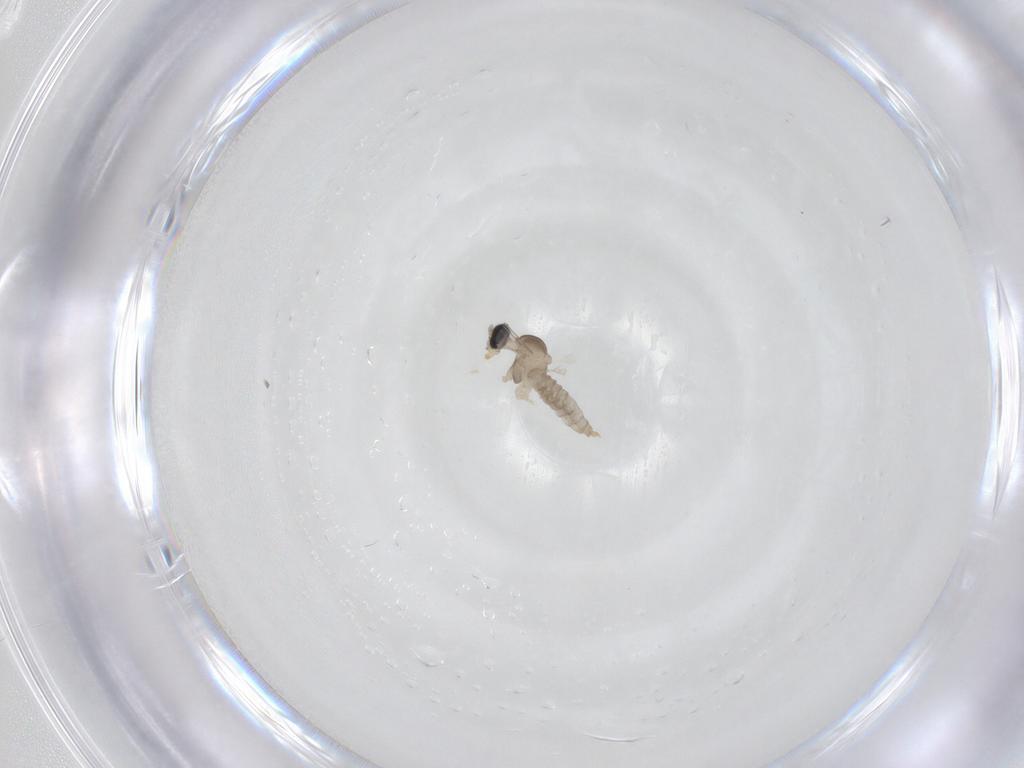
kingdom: Animalia
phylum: Arthropoda
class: Insecta
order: Diptera
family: Cecidomyiidae
